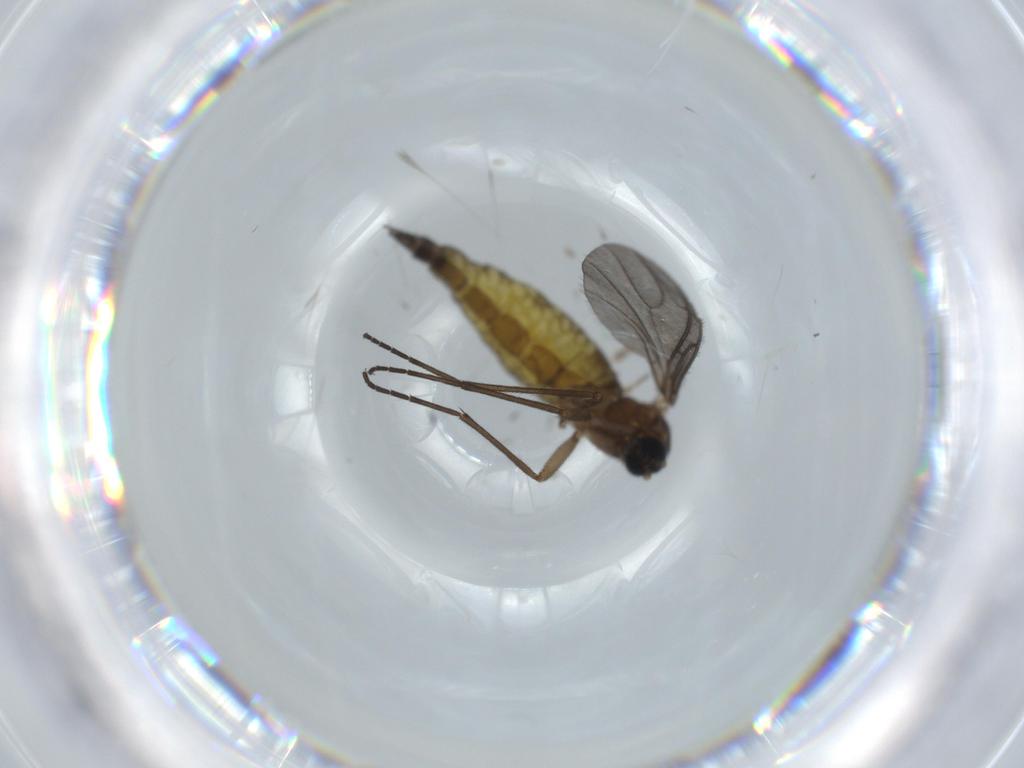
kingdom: Animalia
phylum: Arthropoda
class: Insecta
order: Diptera
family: Sciaridae
